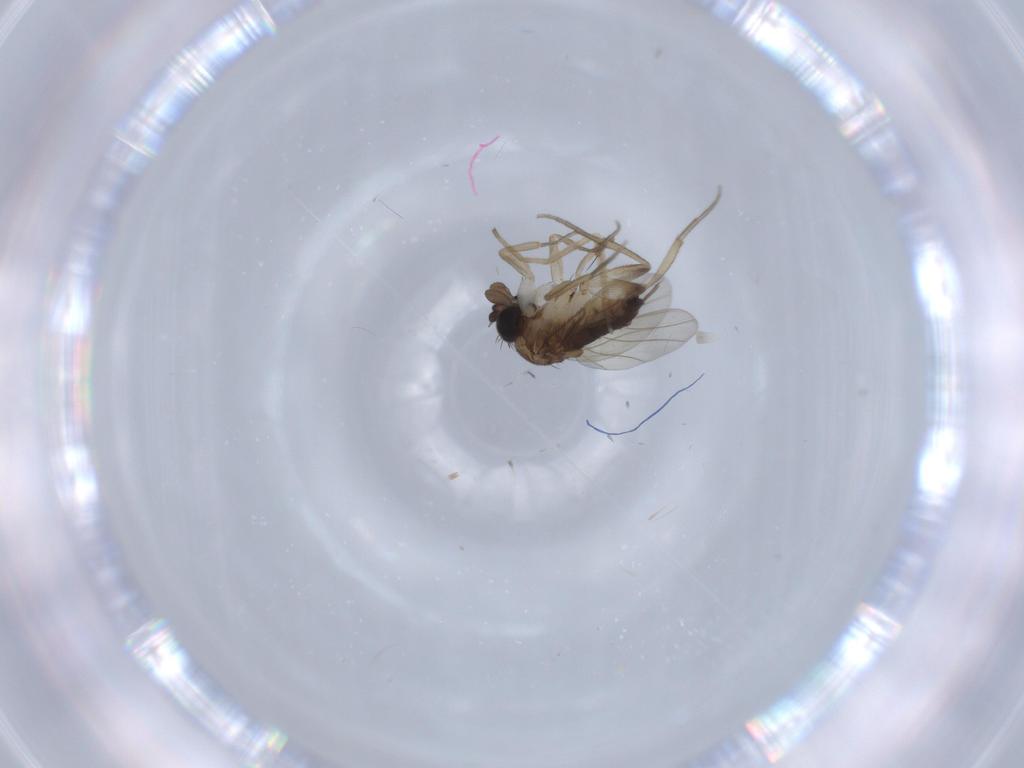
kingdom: Animalia
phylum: Arthropoda
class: Insecta
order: Diptera
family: Phoridae
